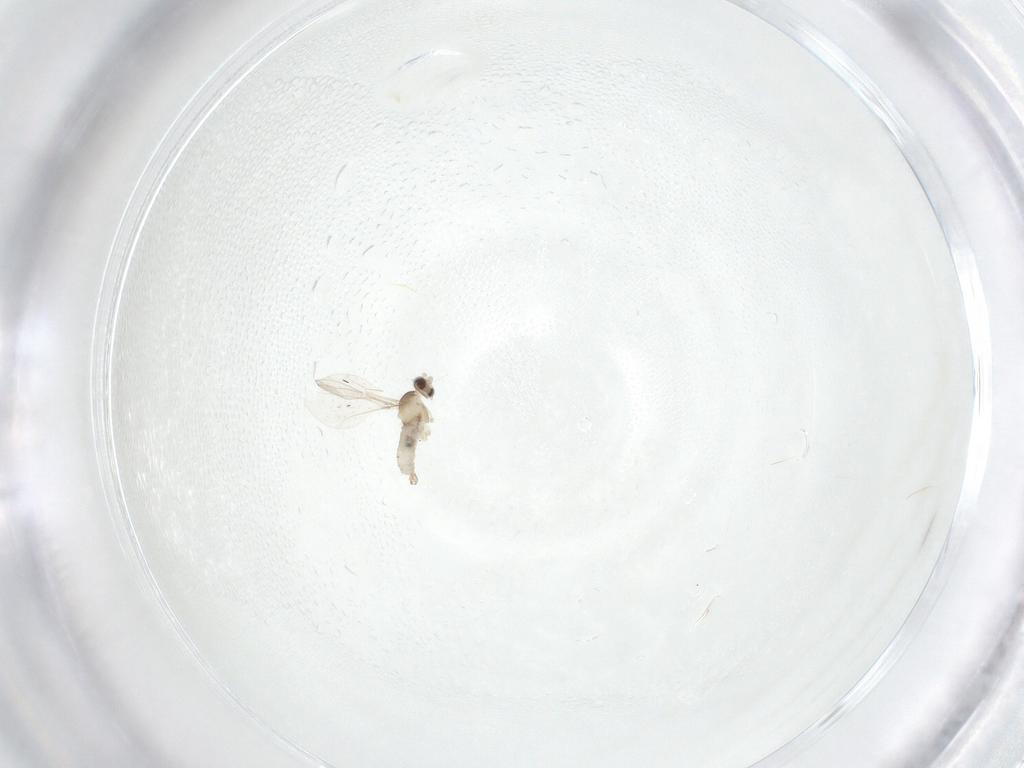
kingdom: Animalia
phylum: Arthropoda
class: Insecta
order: Diptera
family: Cecidomyiidae
